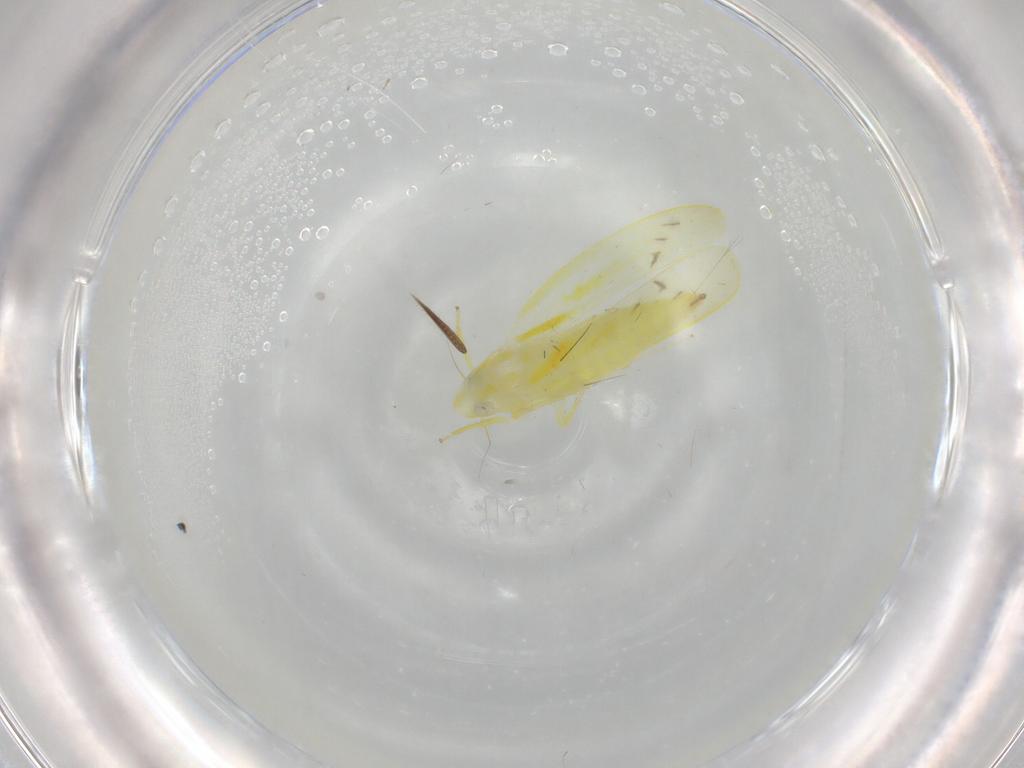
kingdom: Animalia
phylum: Arthropoda
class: Insecta
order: Hemiptera
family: Cicadellidae
